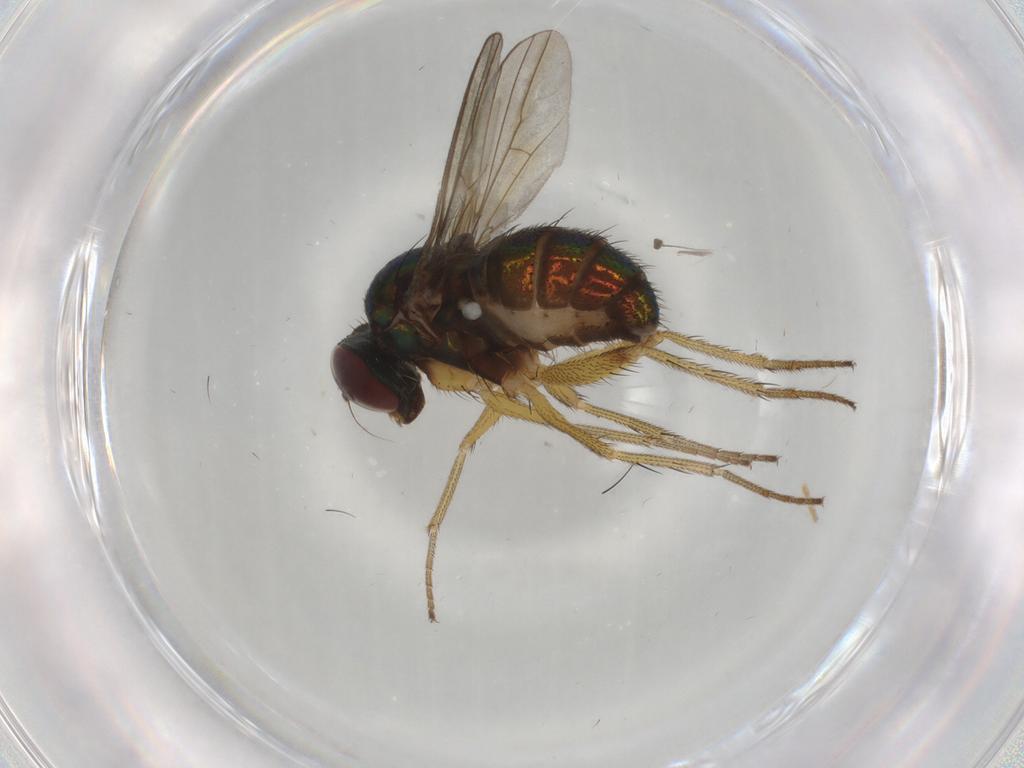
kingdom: Animalia
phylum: Arthropoda
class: Insecta
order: Diptera
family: Dolichopodidae
